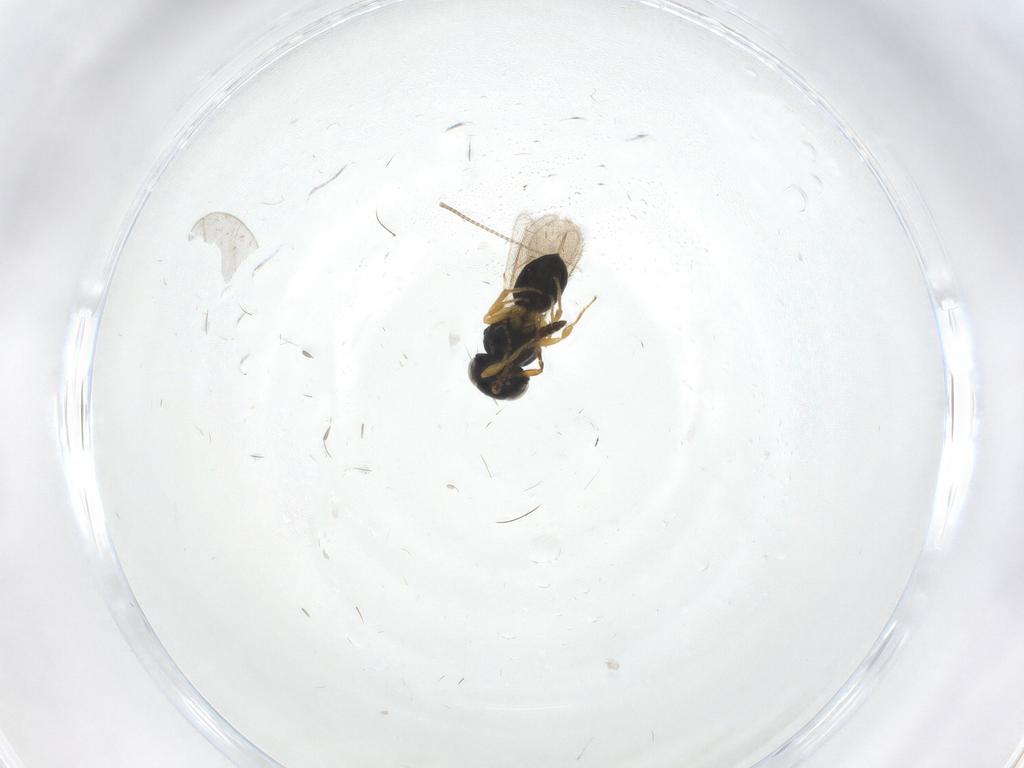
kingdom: Animalia
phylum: Arthropoda
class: Insecta
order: Hymenoptera
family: Scelionidae
